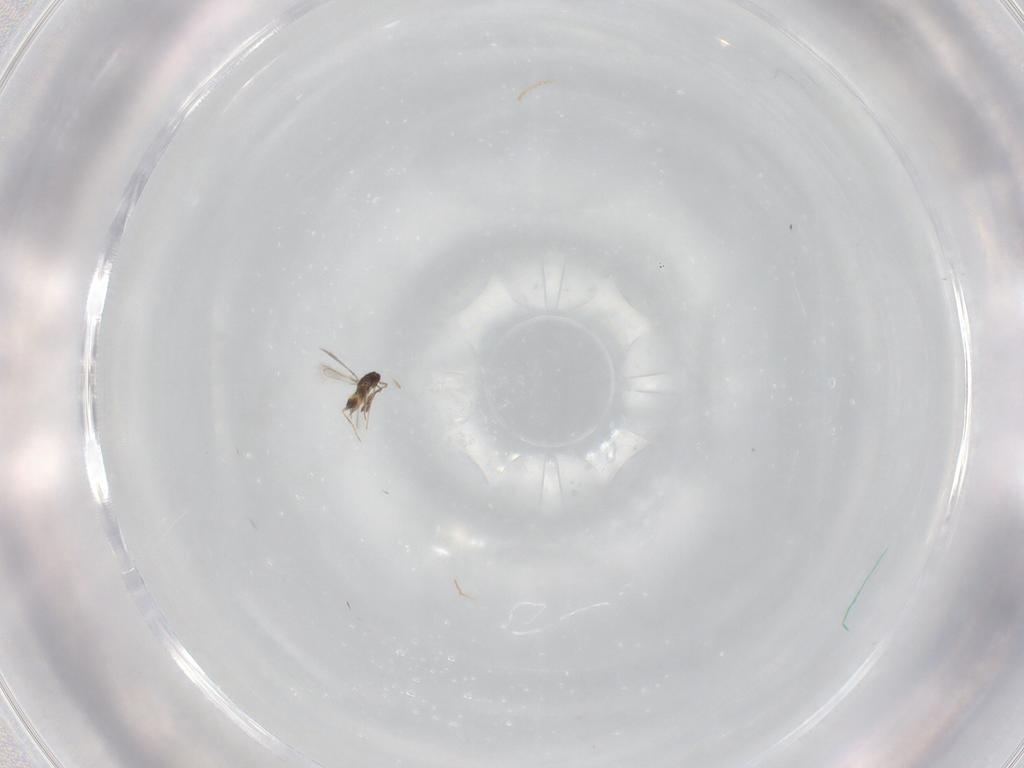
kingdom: Animalia
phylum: Arthropoda
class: Insecta
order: Hymenoptera
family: Mymaridae
